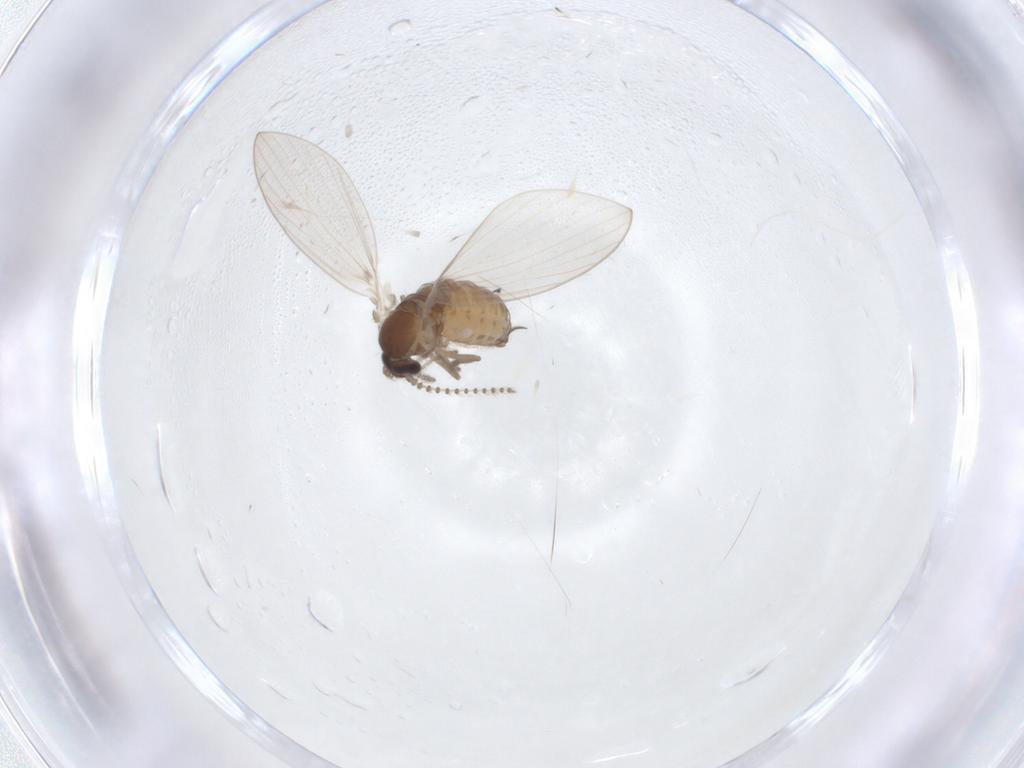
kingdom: Animalia
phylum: Arthropoda
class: Insecta
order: Diptera
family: Psychodidae
